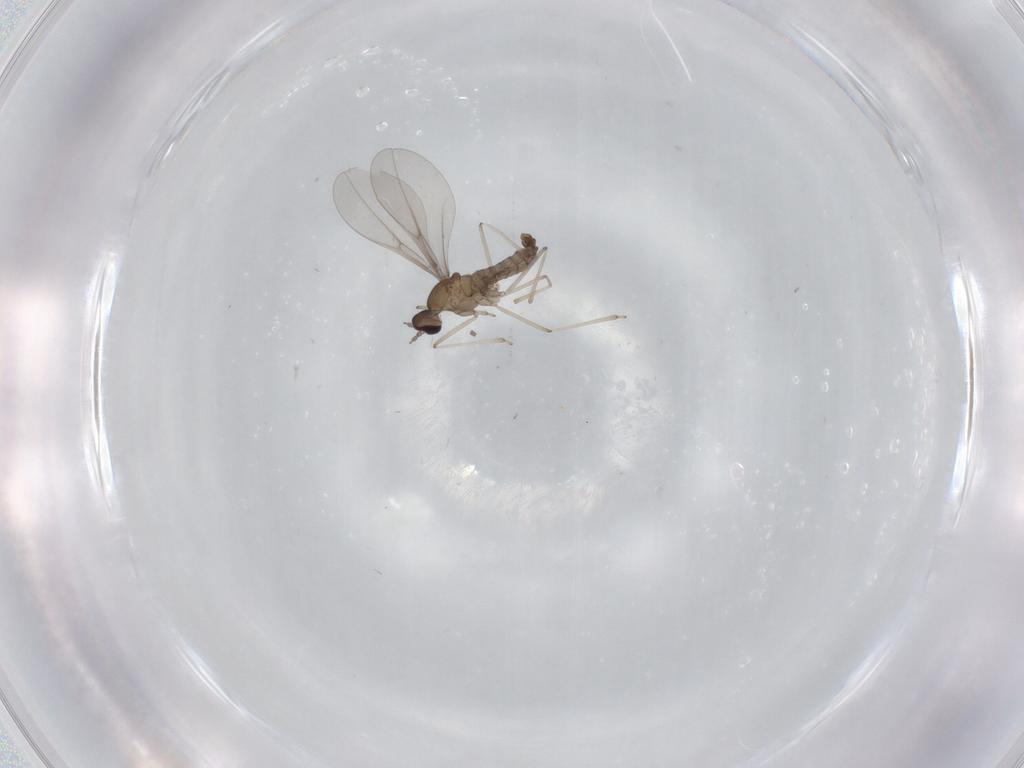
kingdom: Animalia
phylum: Arthropoda
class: Insecta
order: Diptera
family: Cecidomyiidae
